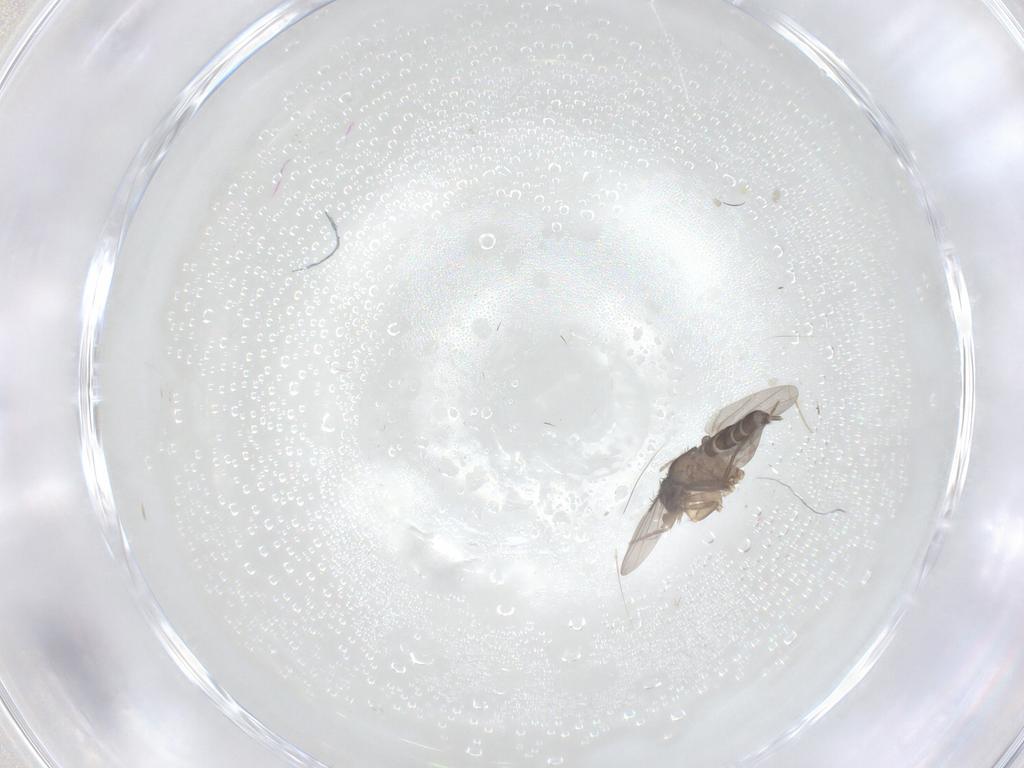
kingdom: Animalia
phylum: Arthropoda
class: Insecta
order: Diptera
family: Phoridae
